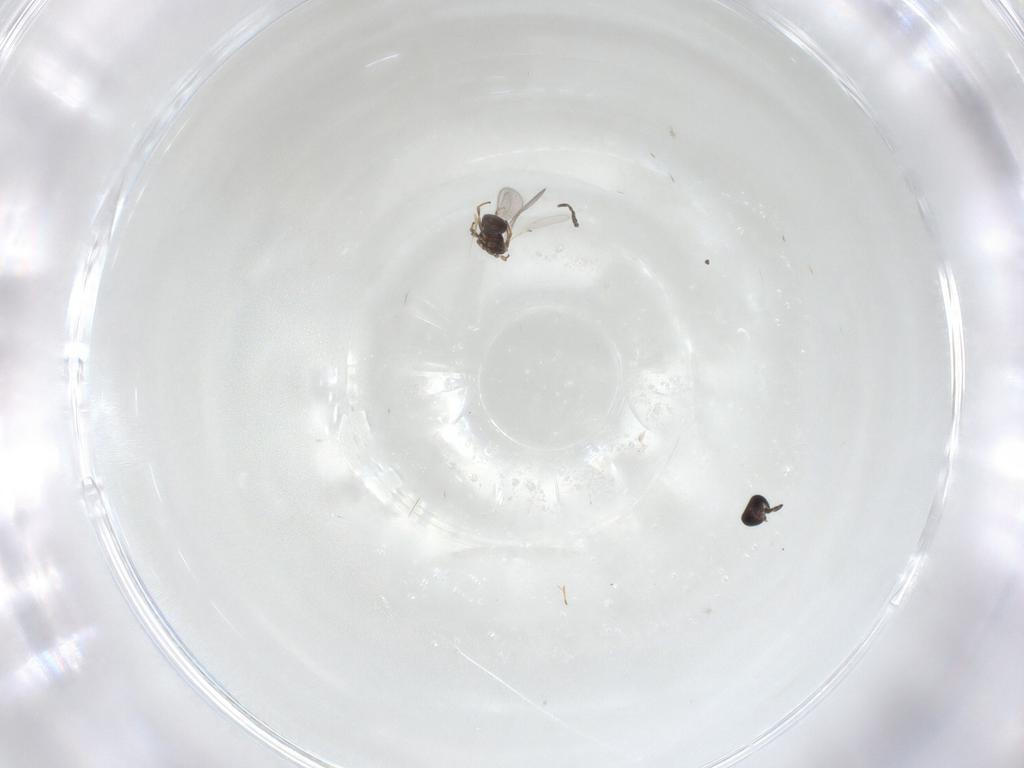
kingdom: Animalia
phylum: Arthropoda
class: Insecta
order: Hymenoptera
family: Scelionidae
